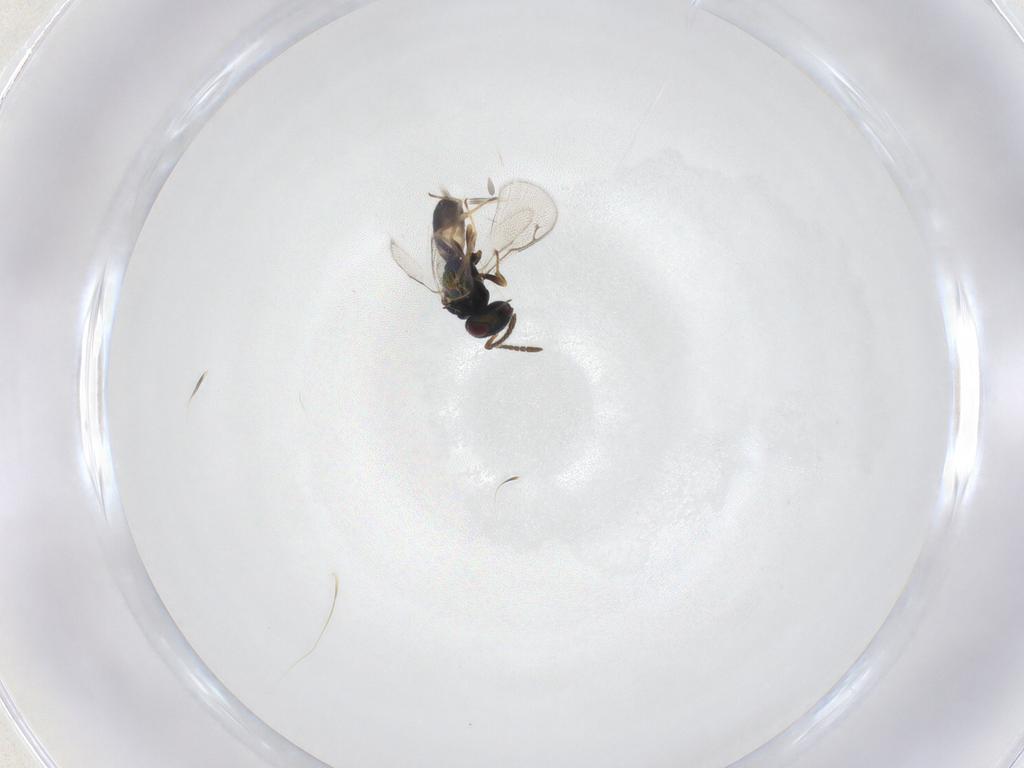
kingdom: Animalia
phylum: Arthropoda
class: Insecta
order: Hymenoptera
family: Pteromalidae
